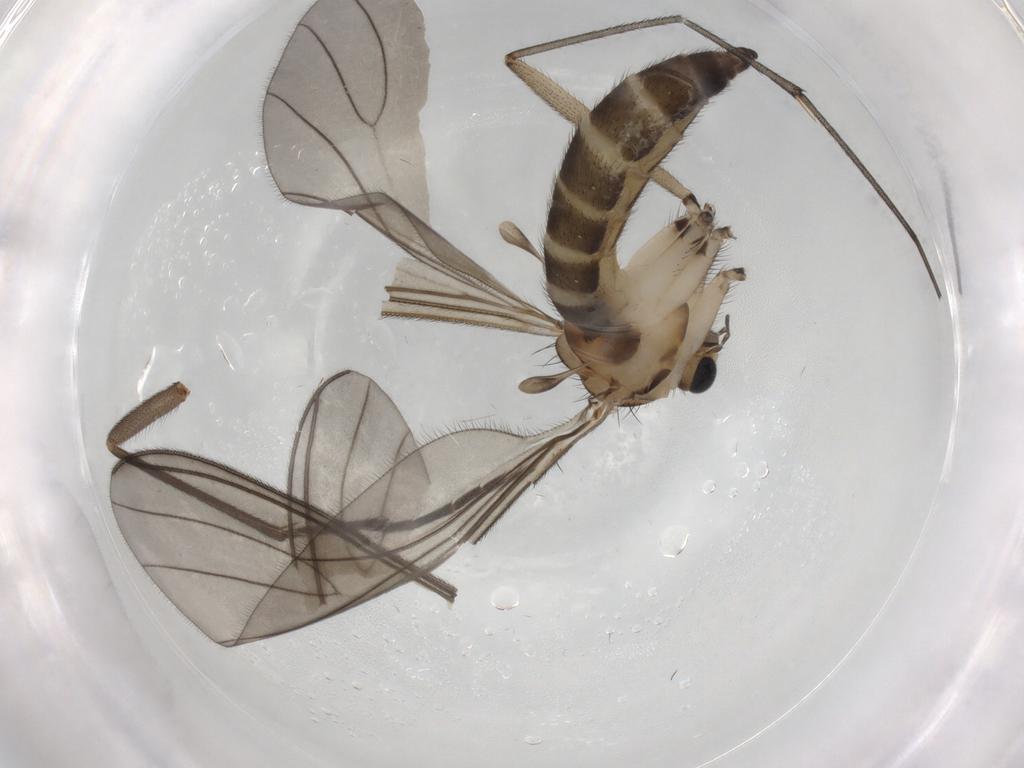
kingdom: Animalia
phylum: Arthropoda
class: Insecta
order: Diptera
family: Sciaridae
